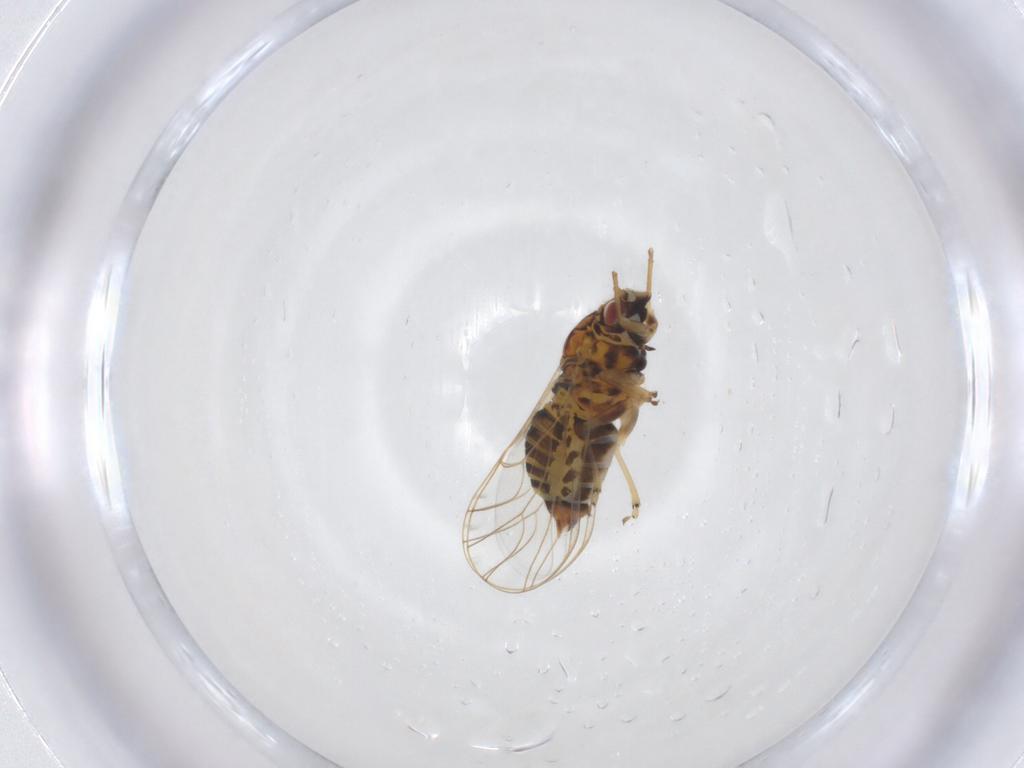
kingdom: Animalia
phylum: Arthropoda
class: Insecta
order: Hemiptera
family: Psylloidea_incertae_sedis
